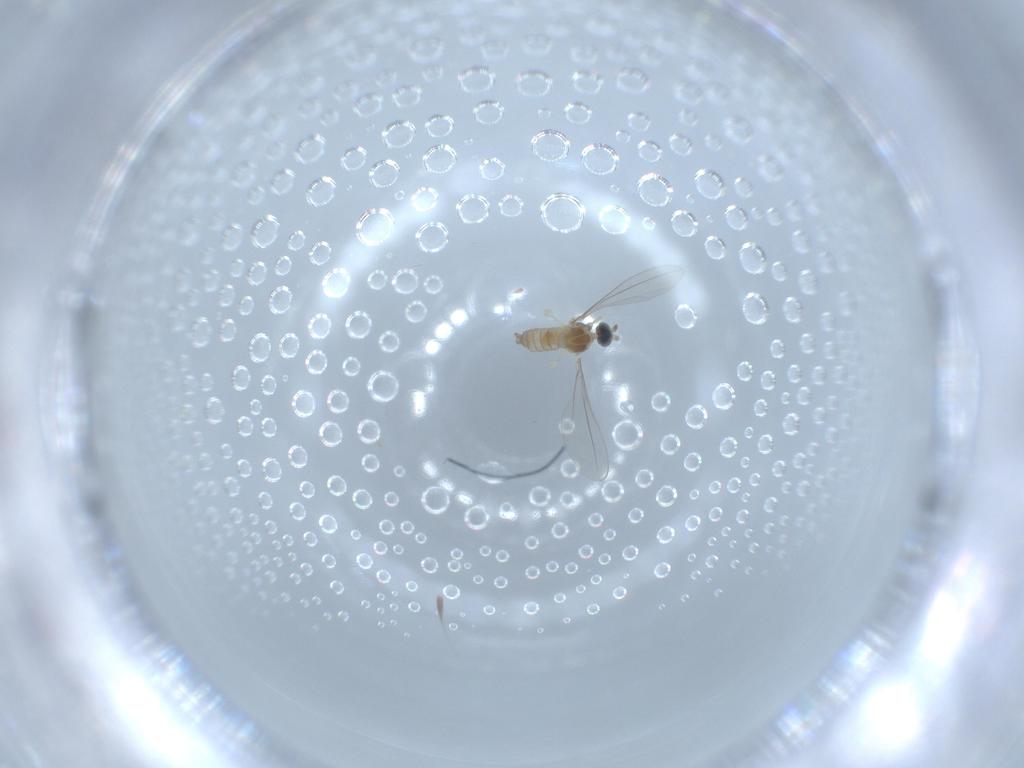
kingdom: Animalia
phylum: Arthropoda
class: Insecta
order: Diptera
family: Cecidomyiidae
